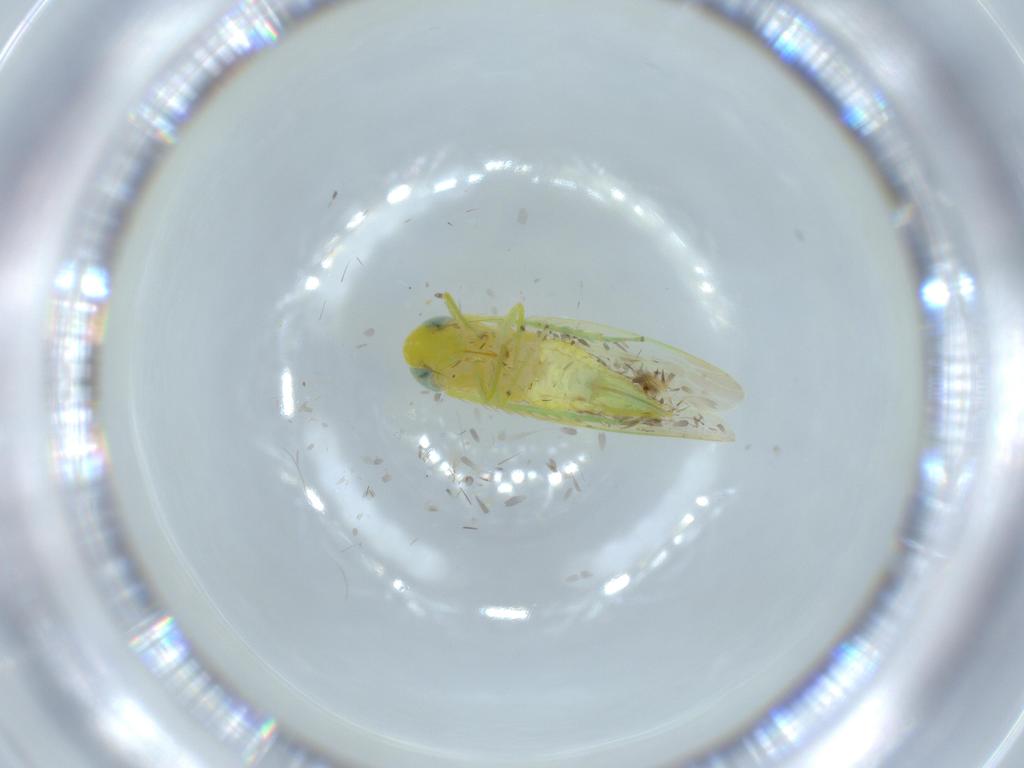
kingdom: Animalia
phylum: Arthropoda
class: Insecta
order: Hemiptera
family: Cicadellidae
